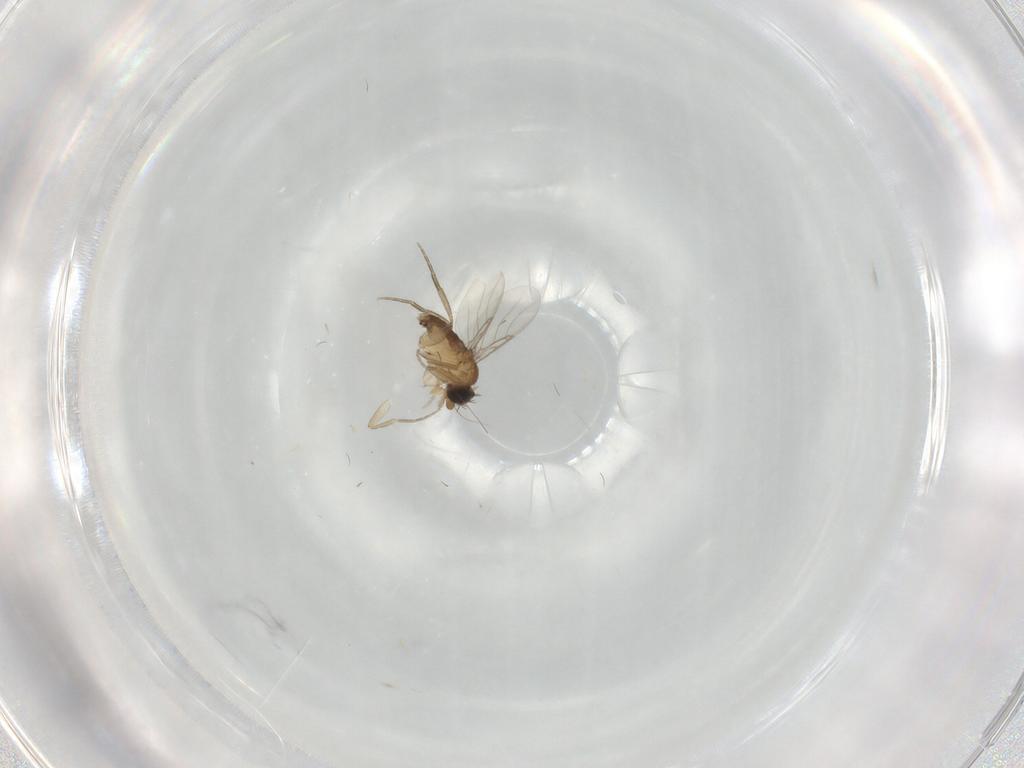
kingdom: Animalia
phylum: Arthropoda
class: Insecta
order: Diptera
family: Phoridae
